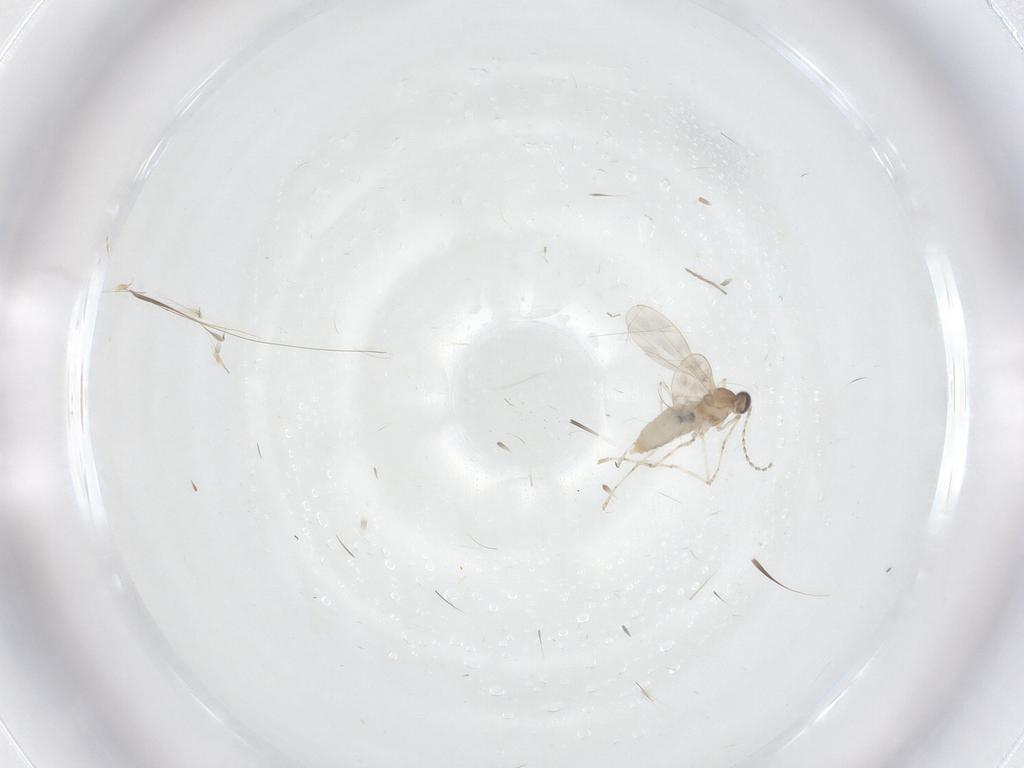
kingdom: Animalia
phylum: Arthropoda
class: Insecta
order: Diptera
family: Chironomidae
